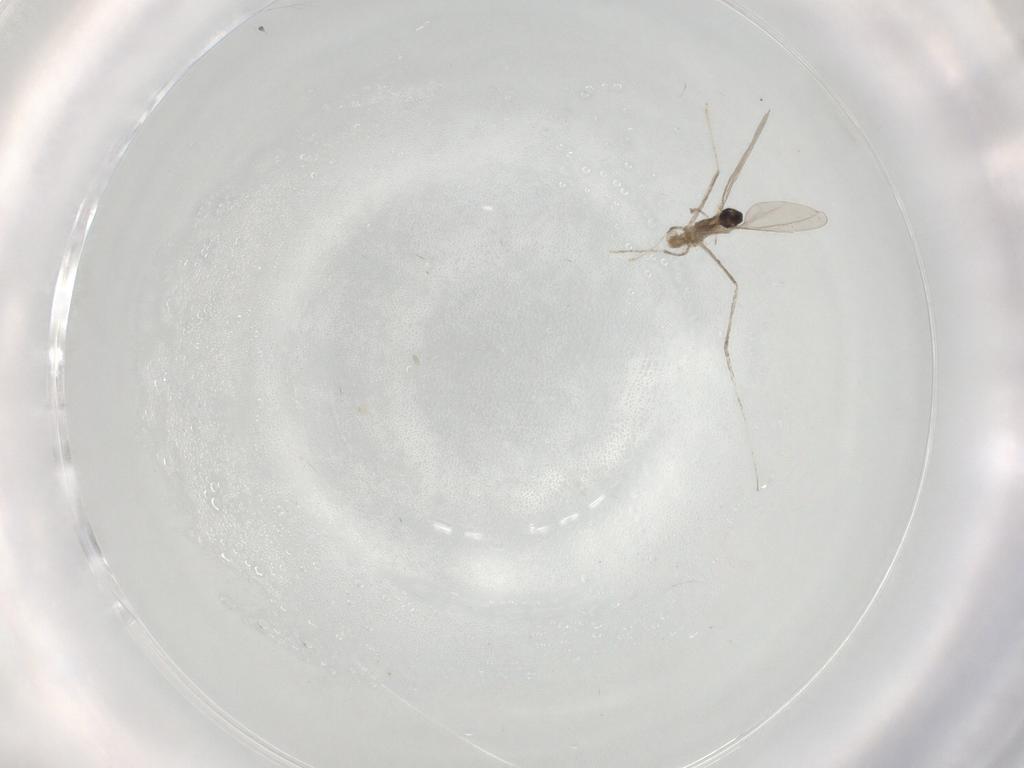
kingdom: Animalia
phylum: Arthropoda
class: Insecta
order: Diptera
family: Cecidomyiidae
